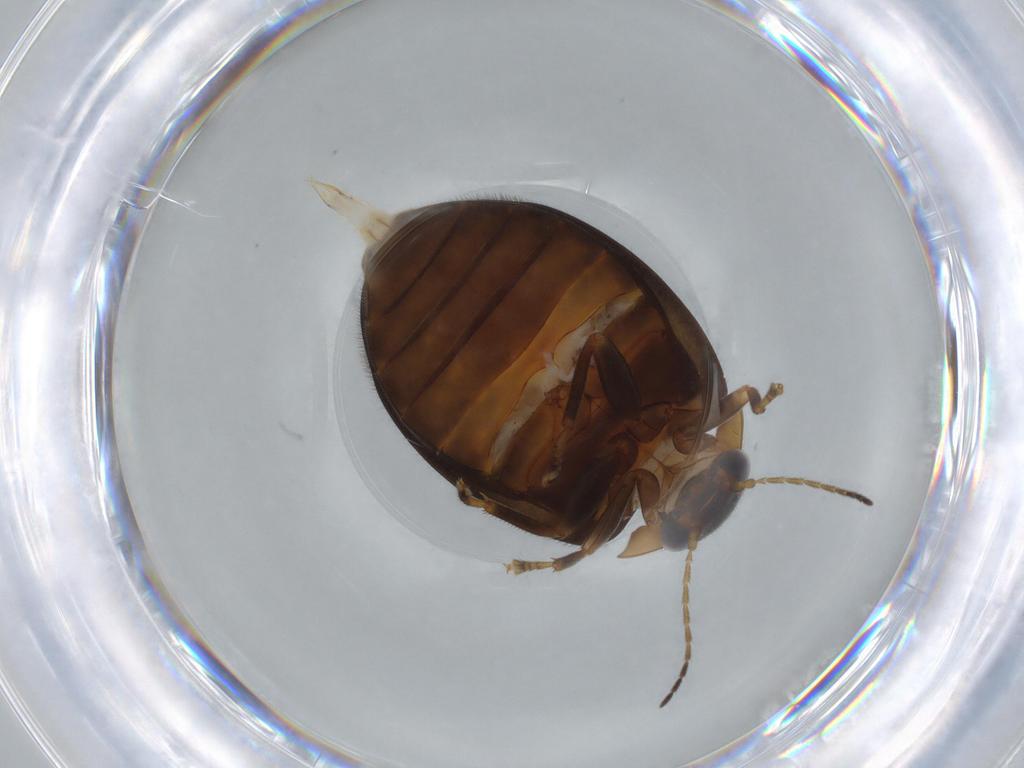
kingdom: Animalia
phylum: Arthropoda
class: Insecta
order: Coleoptera
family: Scirtidae
